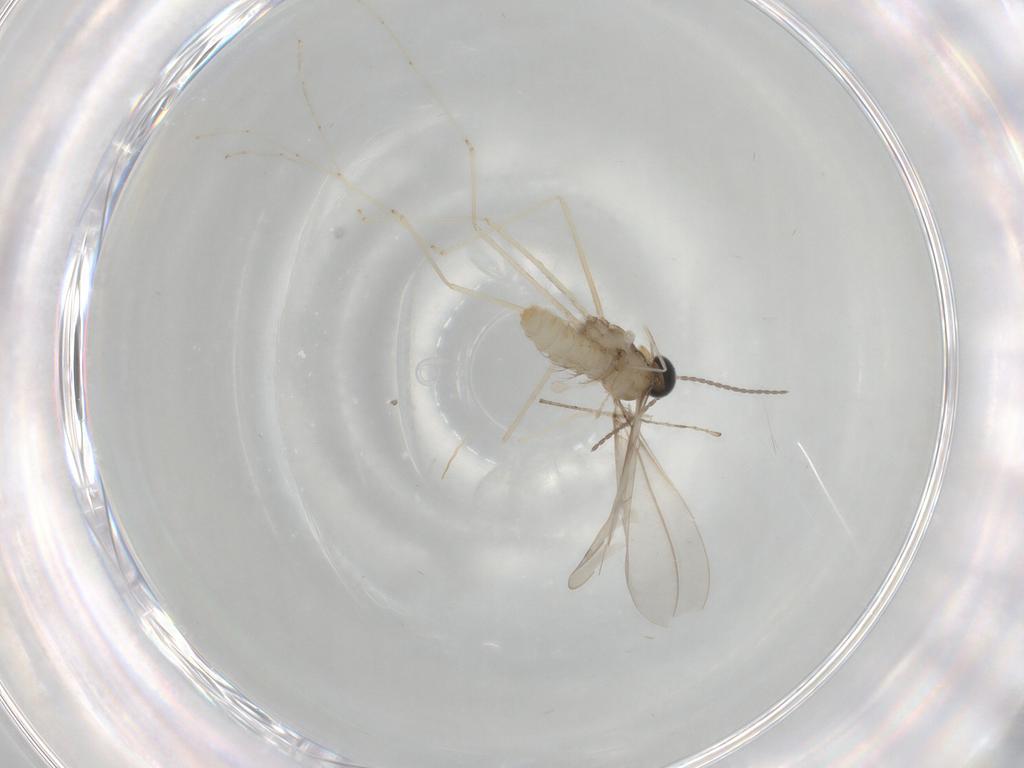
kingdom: Animalia
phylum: Arthropoda
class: Insecta
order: Diptera
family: Cecidomyiidae
